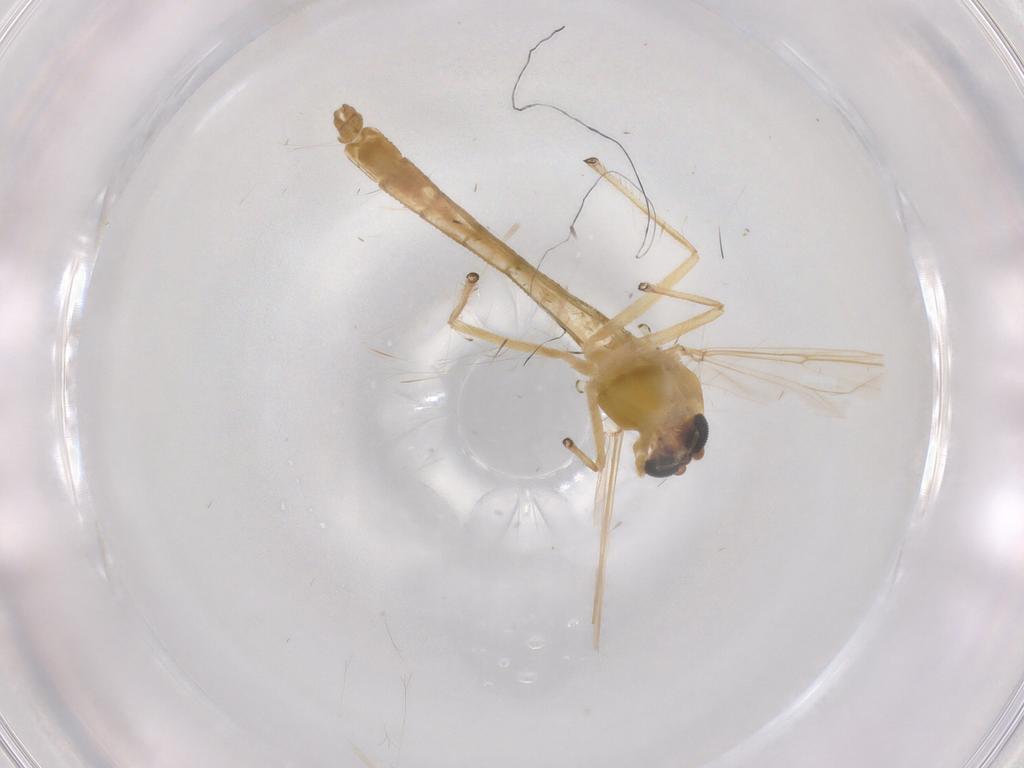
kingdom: Animalia
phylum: Arthropoda
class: Insecta
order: Diptera
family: Chironomidae
